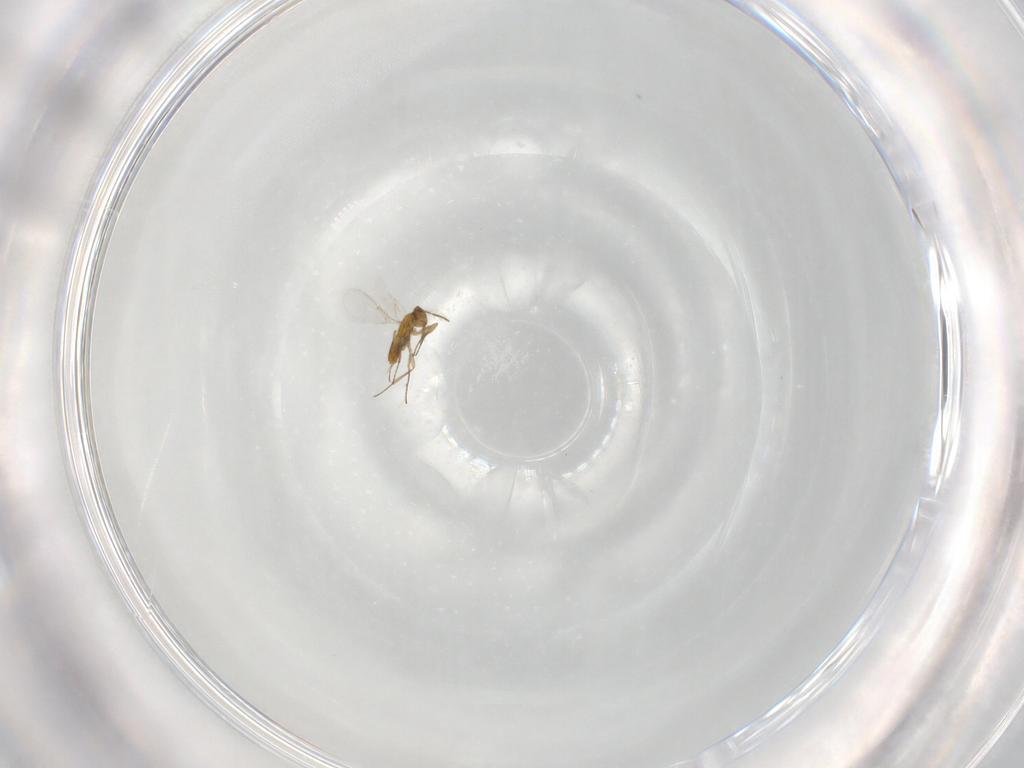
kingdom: Animalia
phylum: Arthropoda
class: Insecta
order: Hymenoptera
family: Aphelinidae
